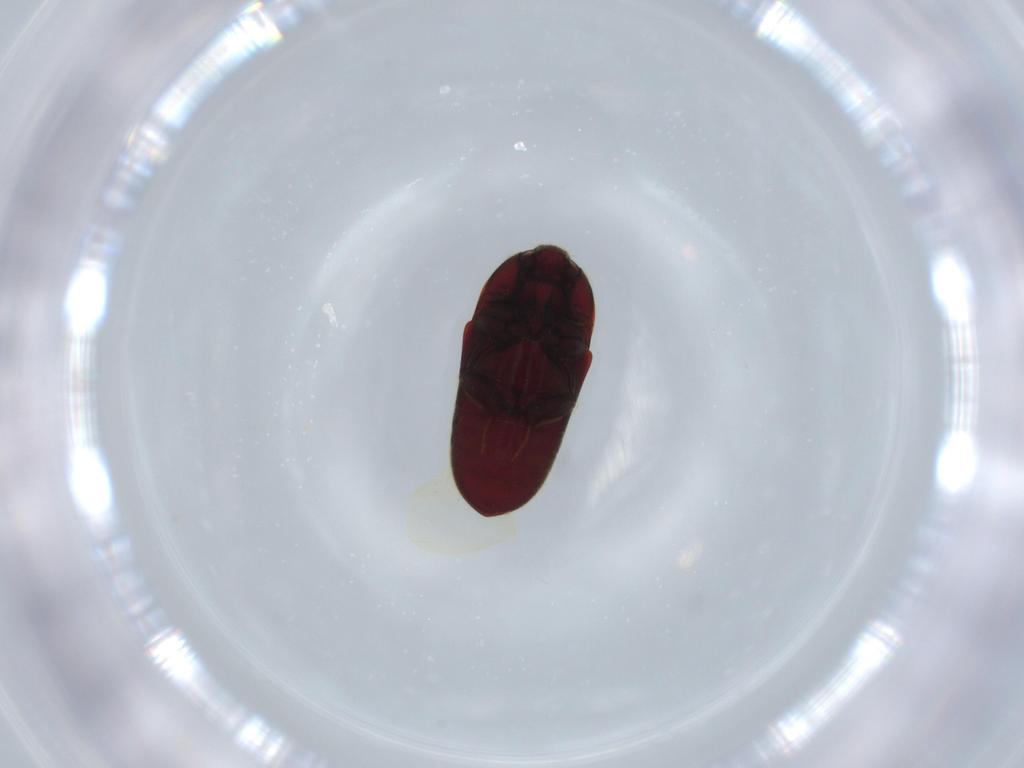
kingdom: Animalia
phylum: Arthropoda
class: Insecta
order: Coleoptera
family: Throscidae
